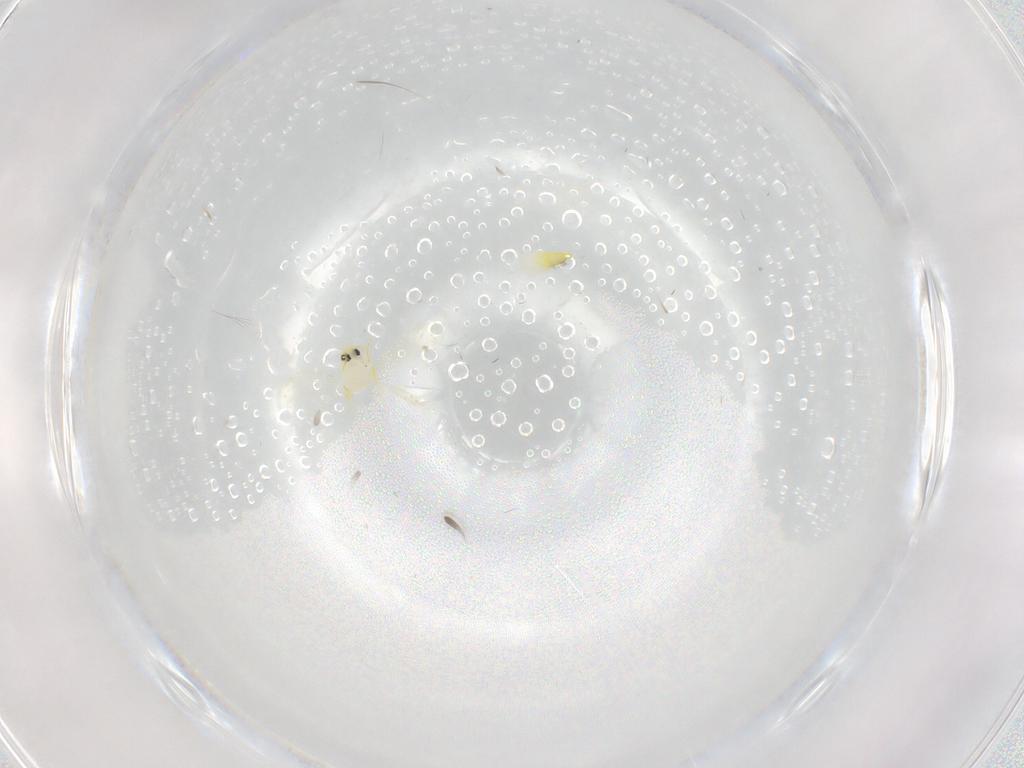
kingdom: Animalia
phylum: Arthropoda
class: Insecta
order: Hemiptera
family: Aleyrodidae
